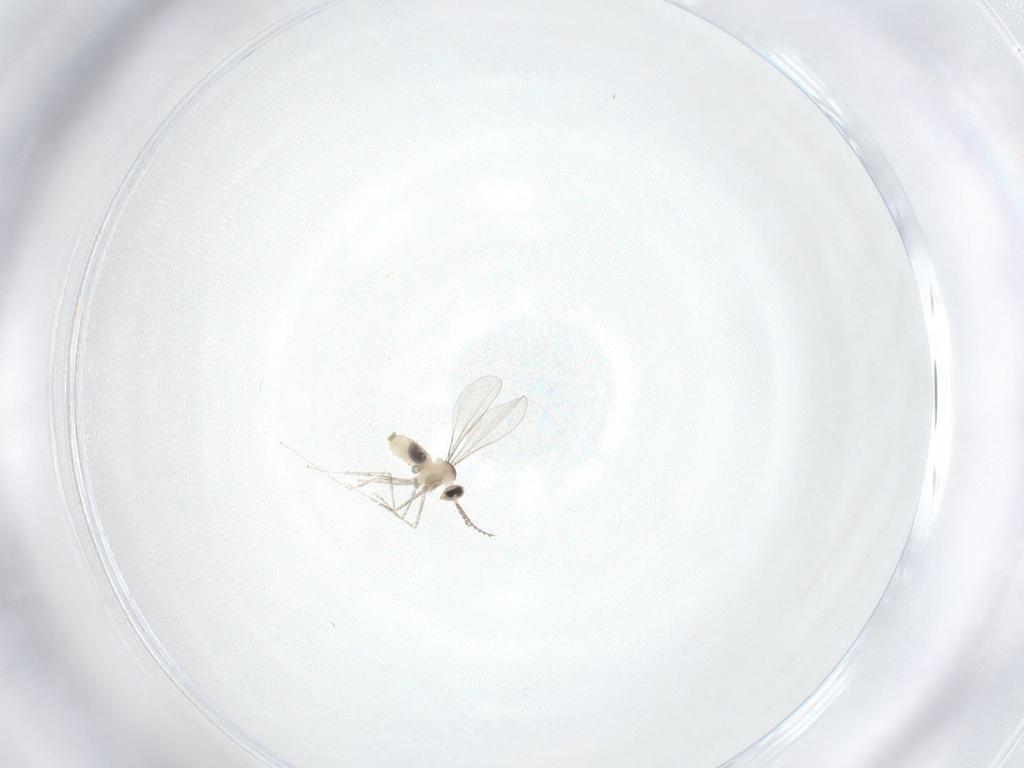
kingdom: Animalia
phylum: Arthropoda
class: Insecta
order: Diptera
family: Cecidomyiidae
